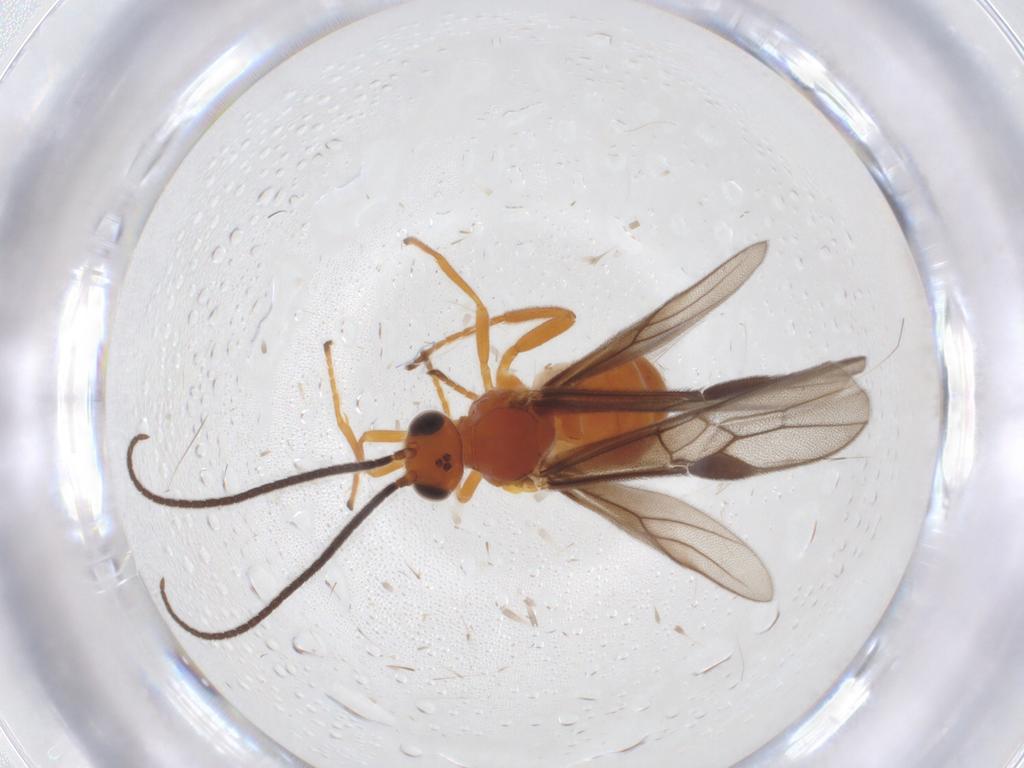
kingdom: Animalia
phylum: Arthropoda
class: Insecta
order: Hymenoptera
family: Braconidae
